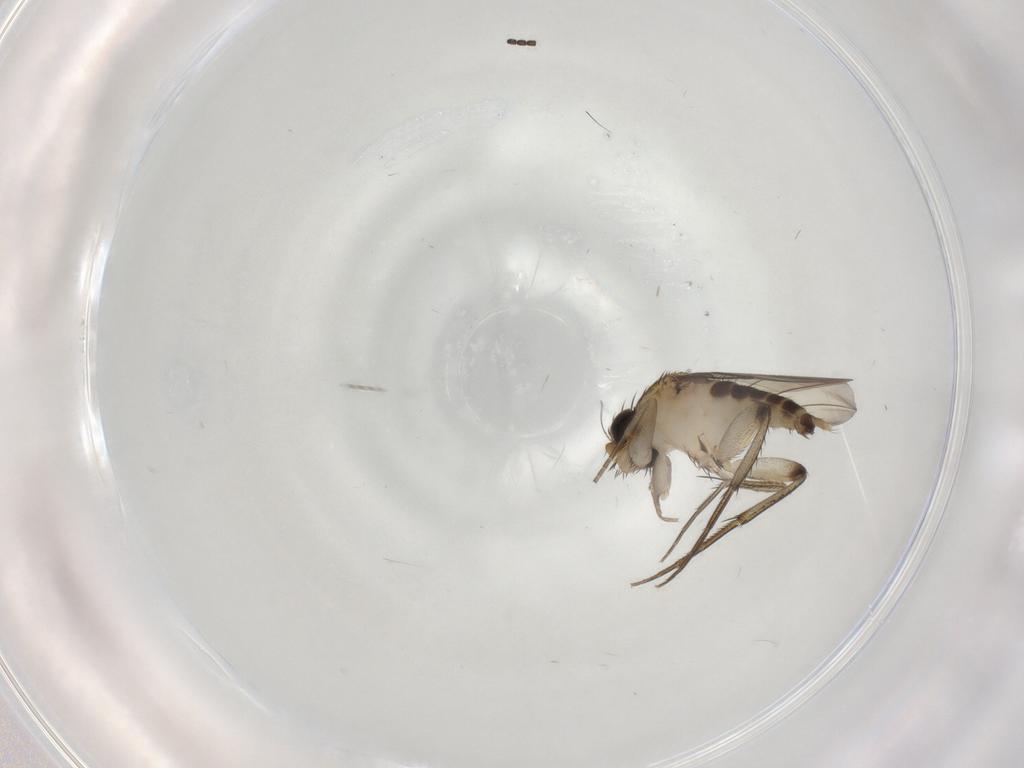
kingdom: Animalia
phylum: Arthropoda
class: Insecta
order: Diptera
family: Phoridae
